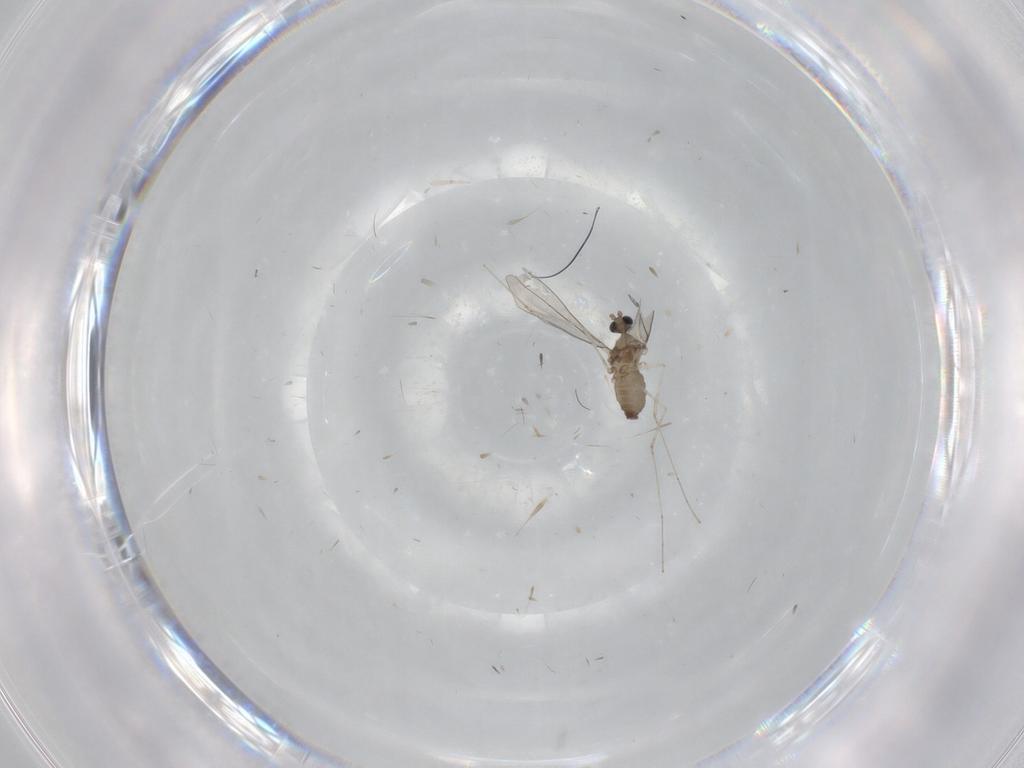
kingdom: Animalia
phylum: Arthropoda
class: Insecta
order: Diptera
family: Cecidomyiidae
